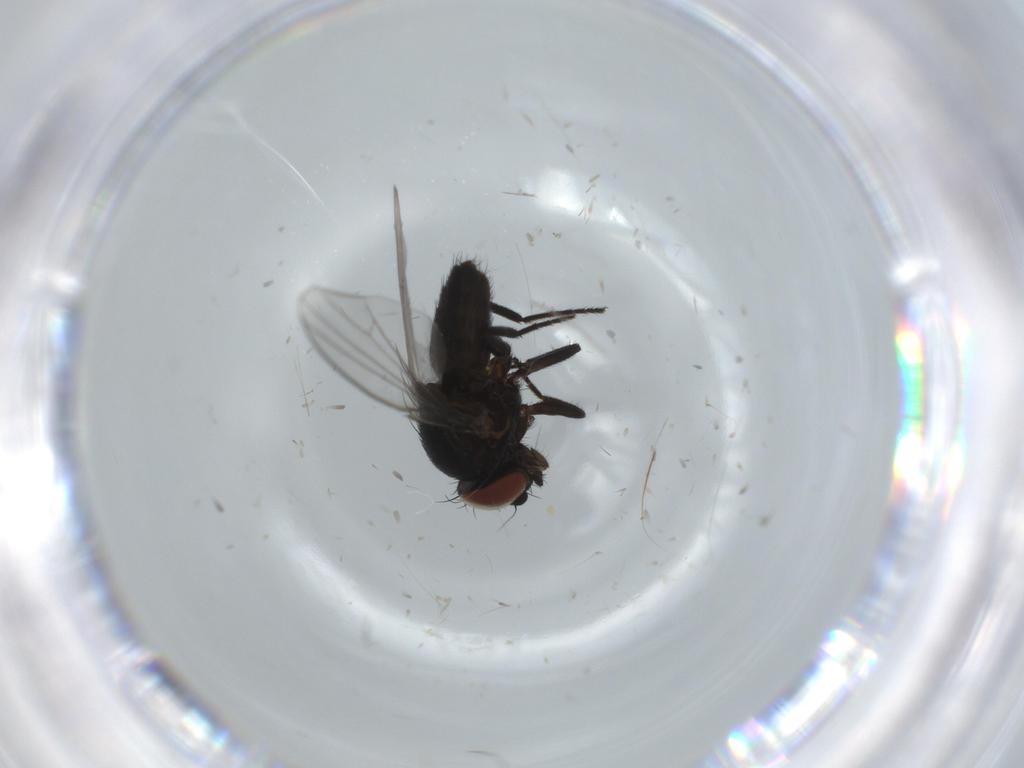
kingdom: Animalia
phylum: Arthropoda
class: Insecta
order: Diptera
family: Milichiidae
